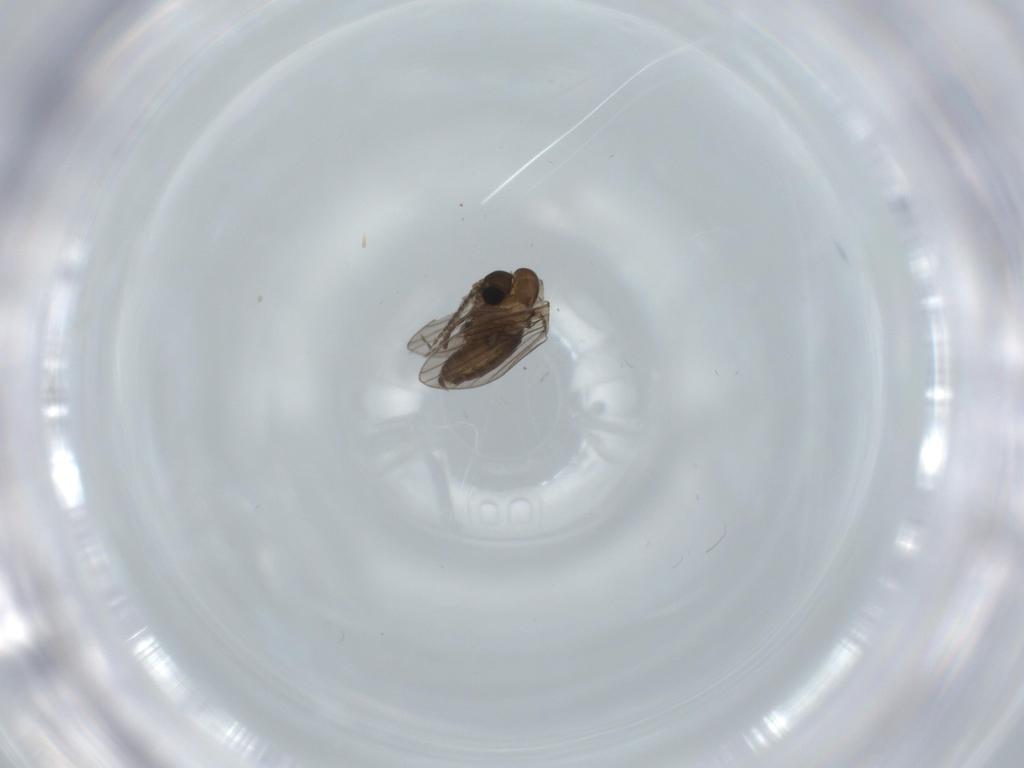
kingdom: Animalia
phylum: Arthropoda
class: Insecta
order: Diptera
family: Psychodidae
